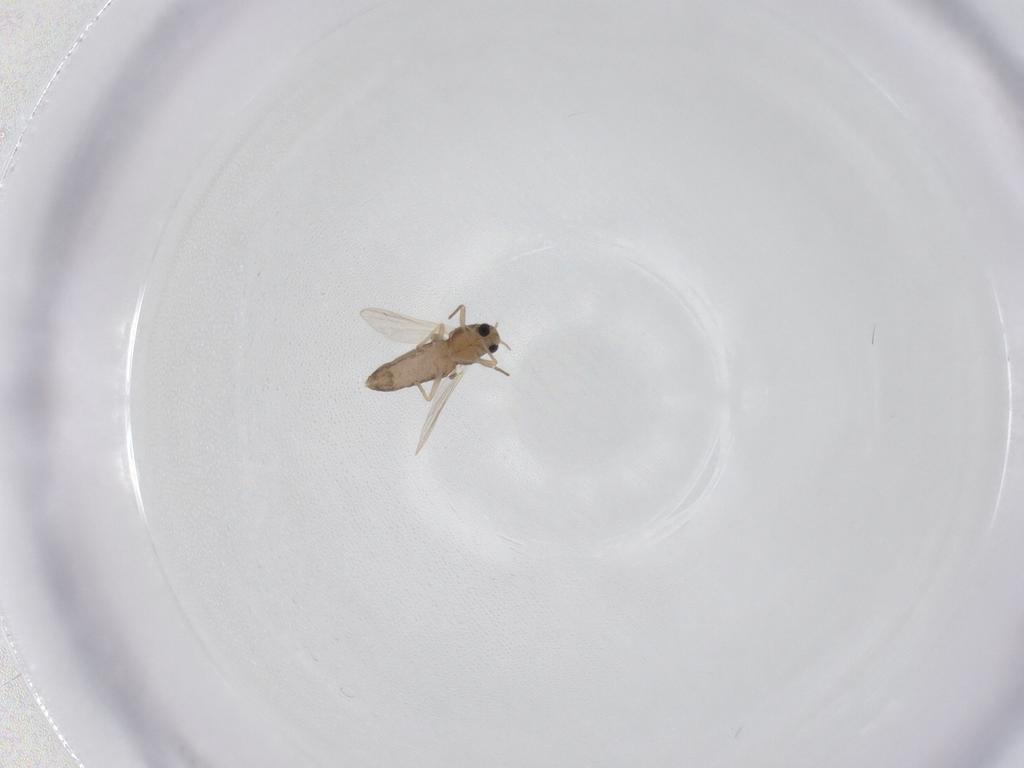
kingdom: Animalia
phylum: Arthropoda
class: Insecta
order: Diptera
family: Chironomidae
